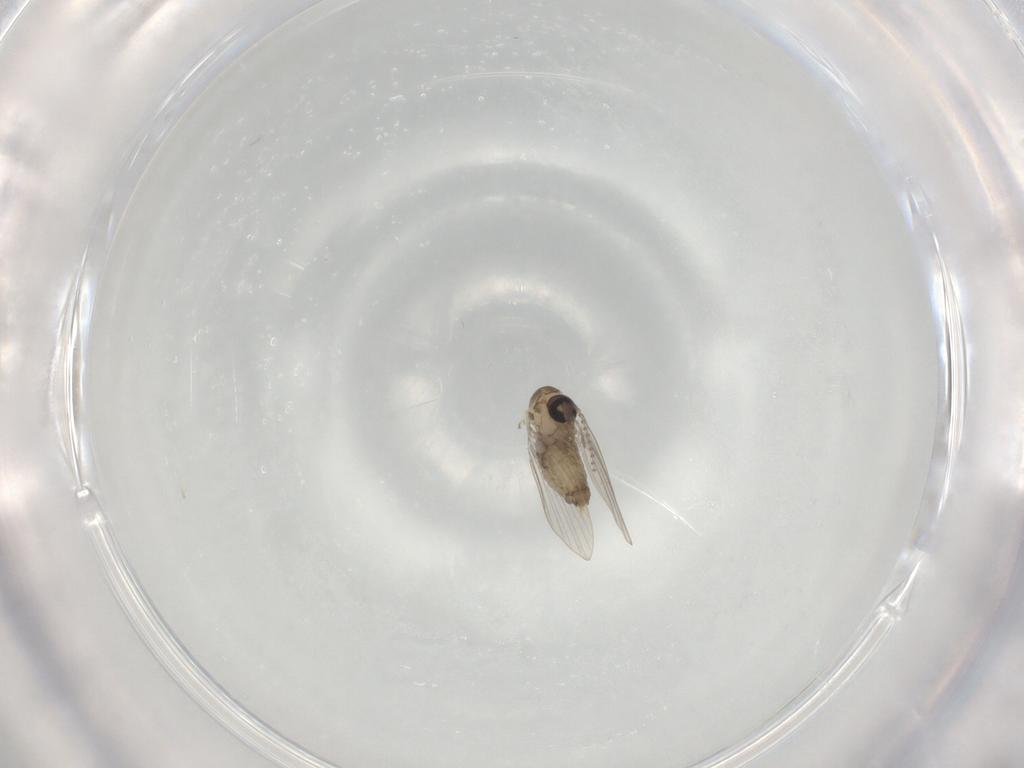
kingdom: Animalia
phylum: Arthropoda
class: Insecta
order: Diptera
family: Psychodidae
